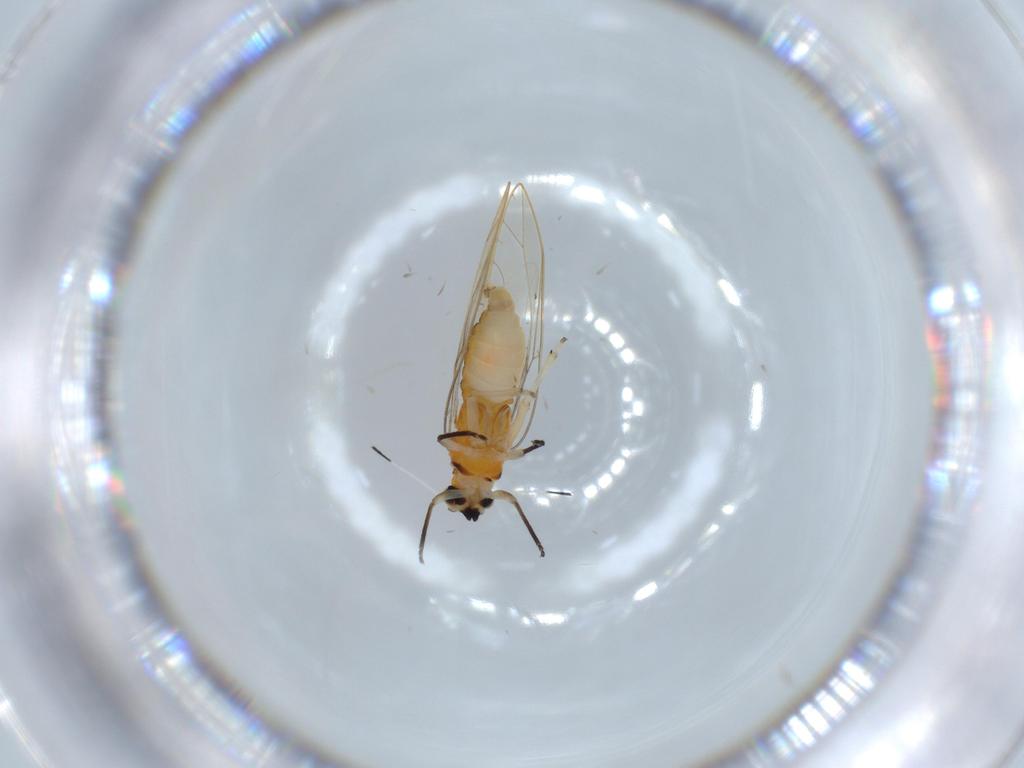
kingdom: Animalia
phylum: Arthropoda
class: Insecta
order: Hemiptera
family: Triozidae
